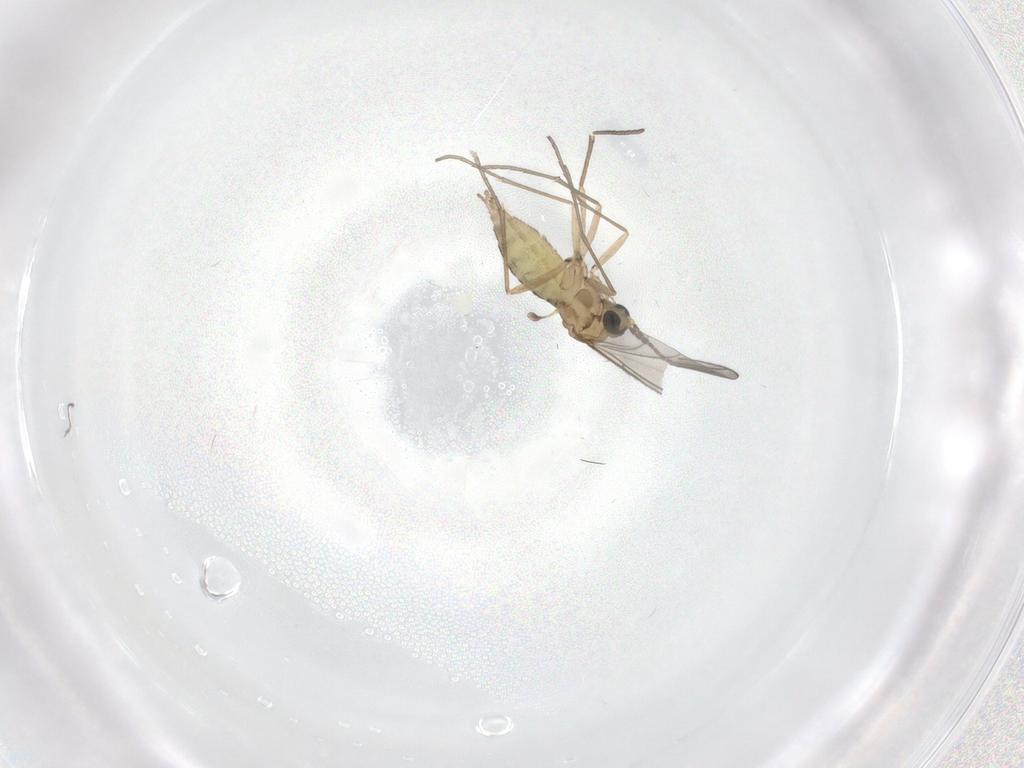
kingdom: Animalia
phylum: Arthropoda
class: Insecta
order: Diptera
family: Sciaridae
